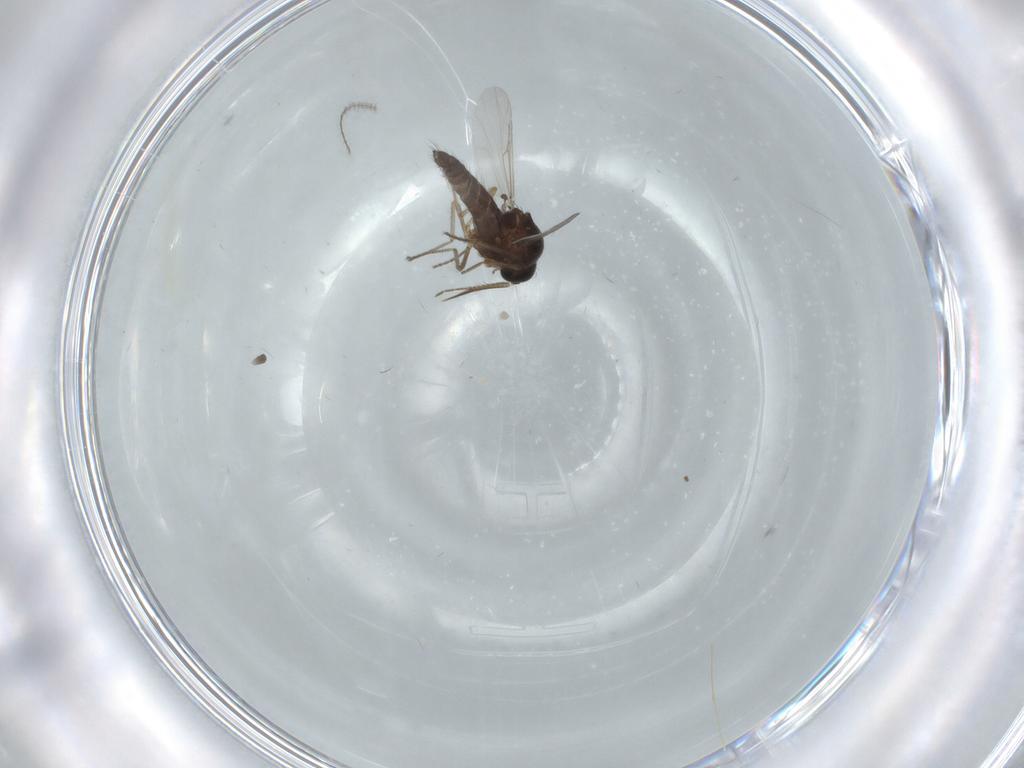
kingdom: Animalia
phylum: Arthropoda
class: Insecta
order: Diptera
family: Ceratopogonidae
